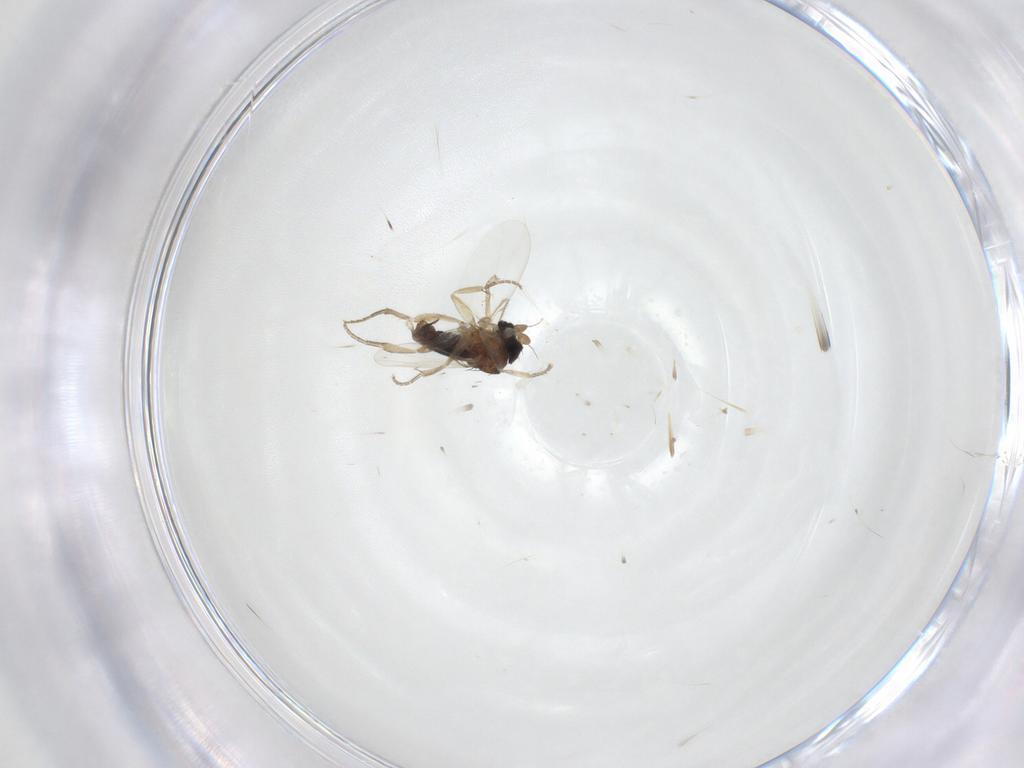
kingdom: Animalia
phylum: Arthropoda
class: Insecta
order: Diptera
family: Phoridae
